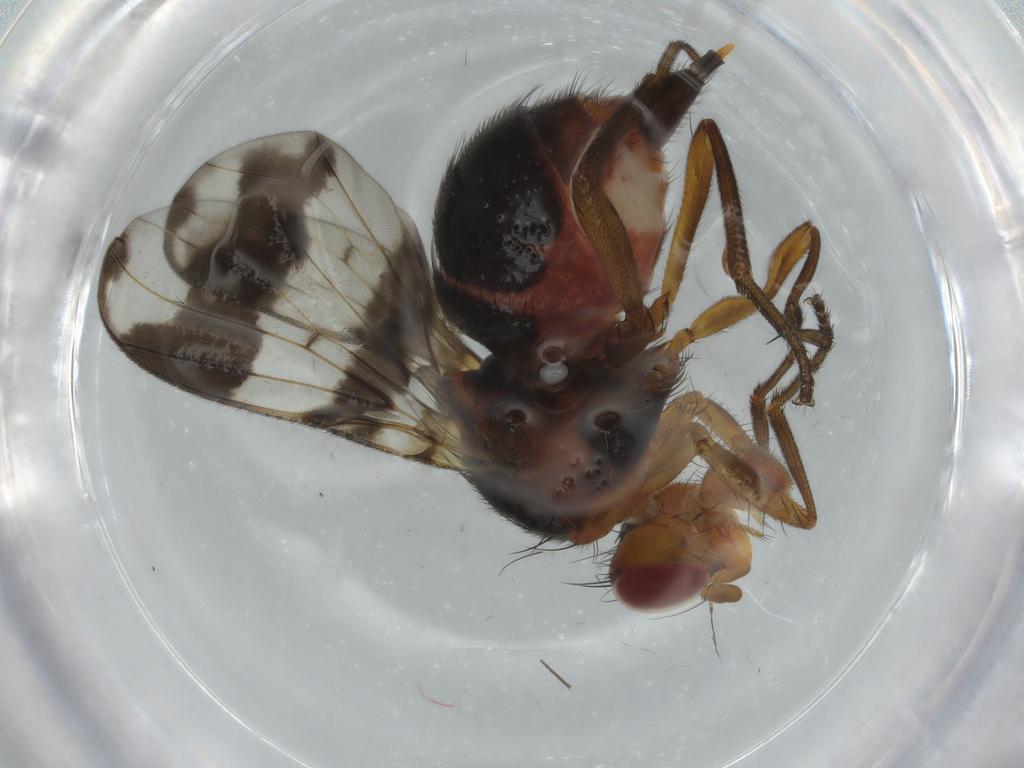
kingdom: Animalia
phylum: Arthropoda
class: Insecta
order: Diptera
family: Richardiidae
